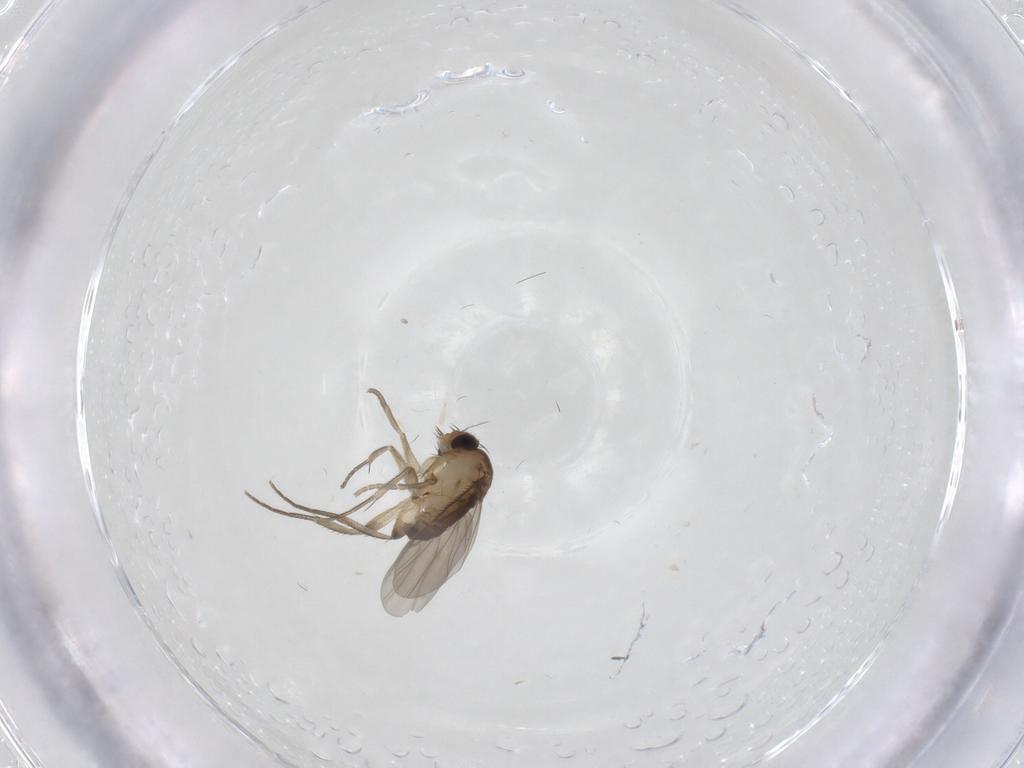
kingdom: Animalia
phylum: Arthropoda
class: Insecta
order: Diptera
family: Phoridae
